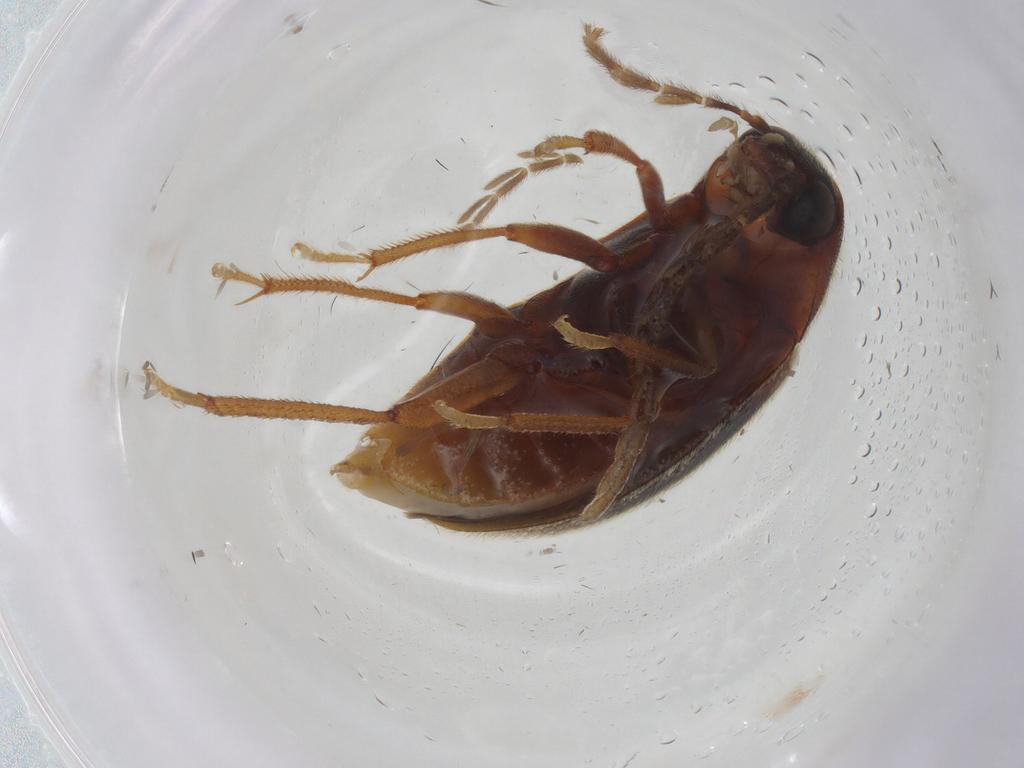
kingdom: Animalia
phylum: Arthropoda
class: Insecta
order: Coleoptera
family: Ptilodactylidae
